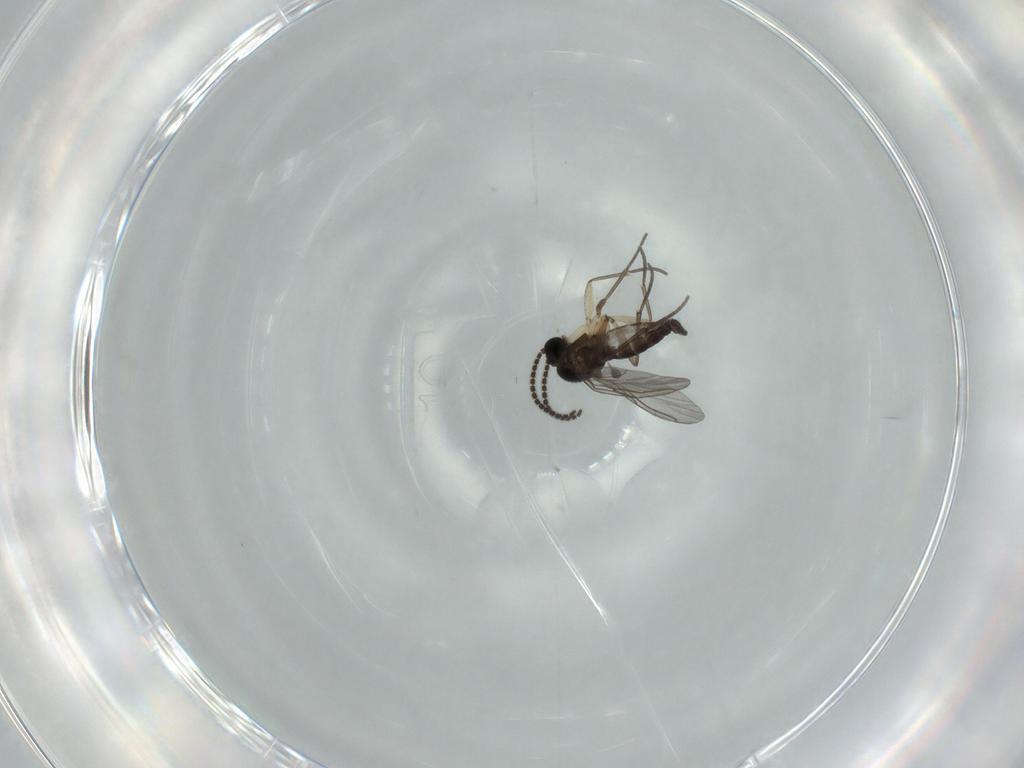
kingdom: Animalia
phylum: Arthropoda
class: Insecta
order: Diptera
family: Sciaridae
